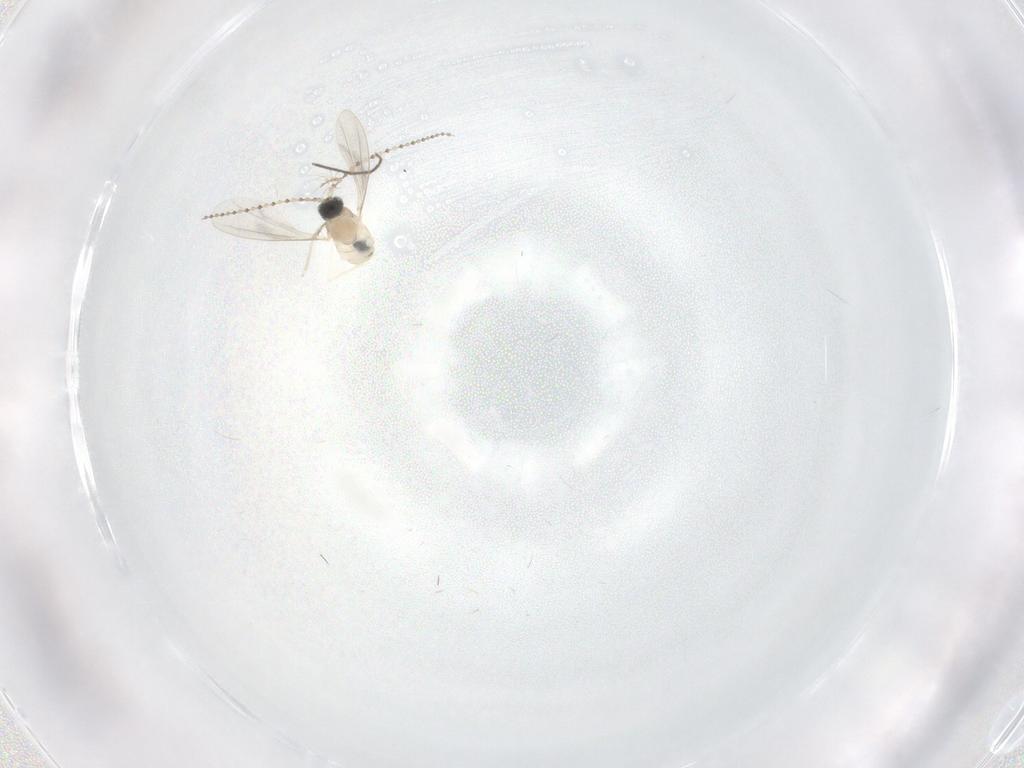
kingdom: Animalia
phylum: Arthropoda
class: Insecta
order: Diptera
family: Chironomidae
